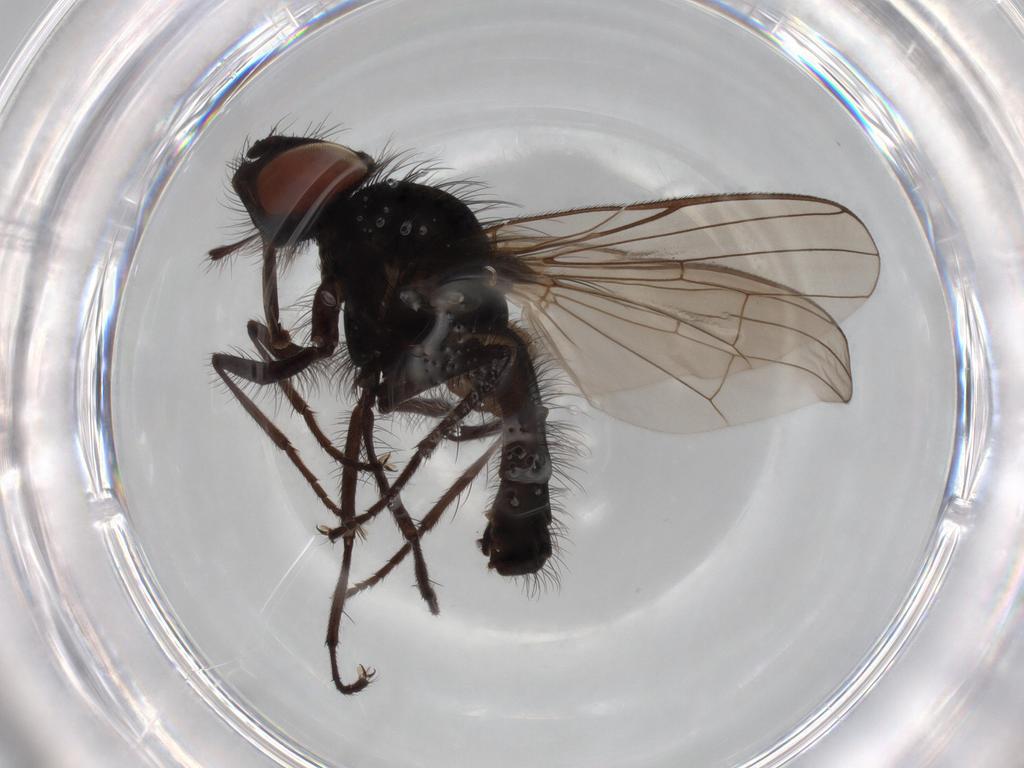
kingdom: Animalia
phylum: Arthropoda
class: Insecta
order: Diptera
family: Anthomyiidae
